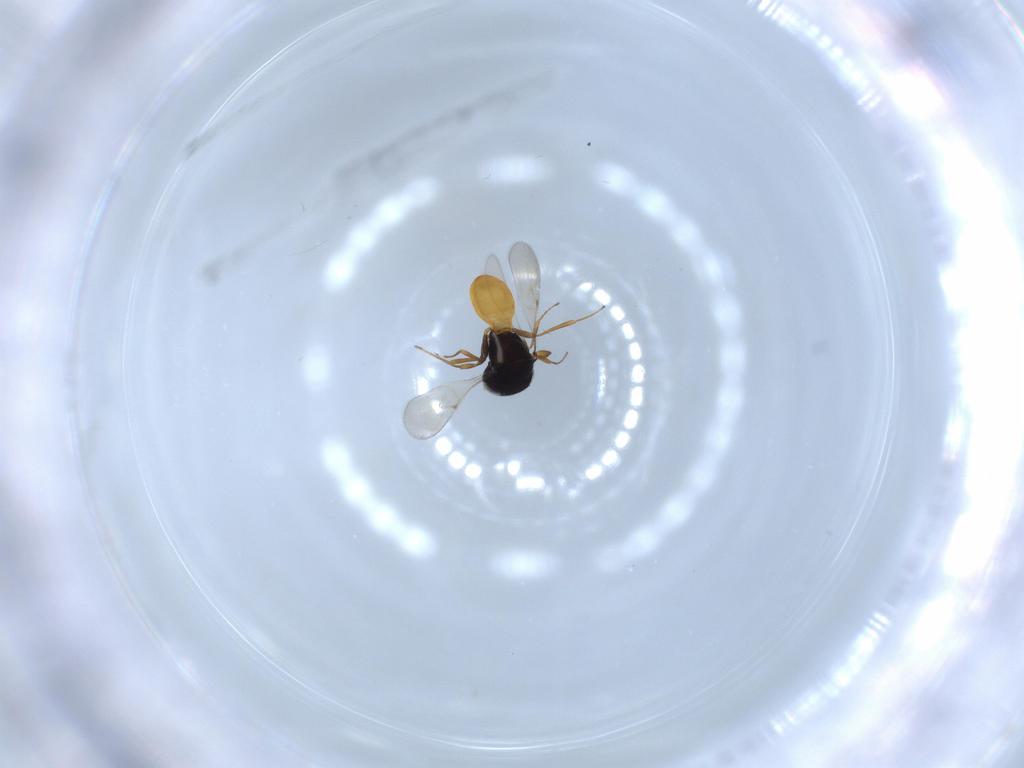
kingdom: Animalia
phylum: Arthropoda
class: Insecta
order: Hymenoptera
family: Scelionidae
